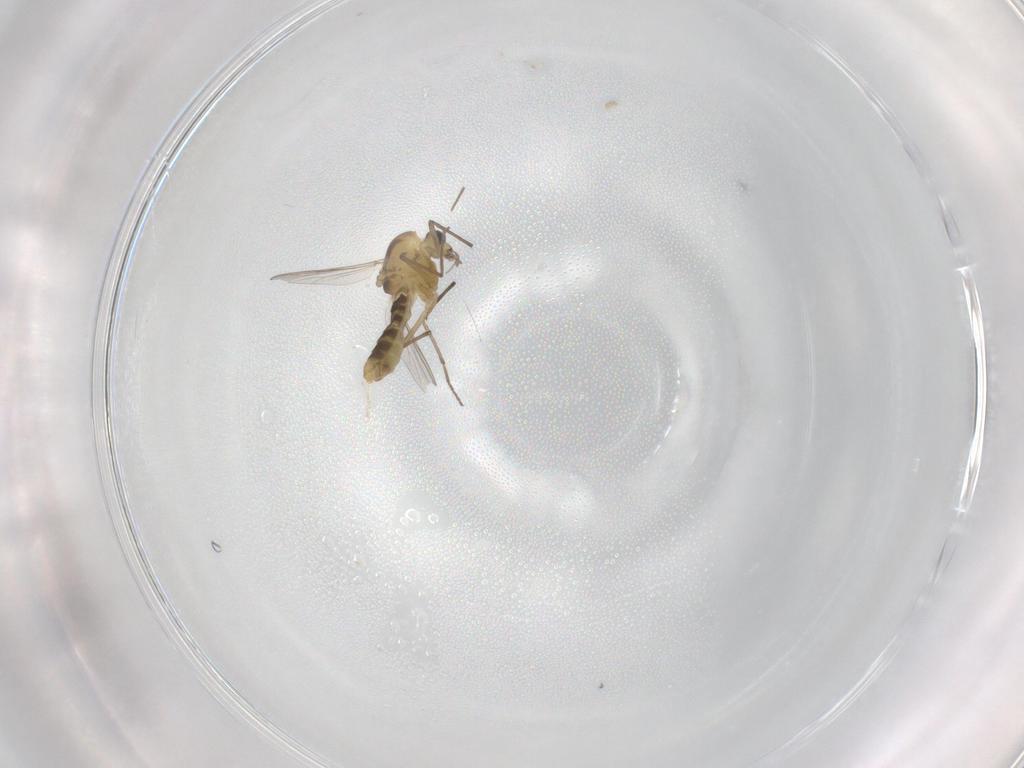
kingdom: Animalia
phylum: Arthropoda
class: Insecta
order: Diptera
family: Chironomidae
